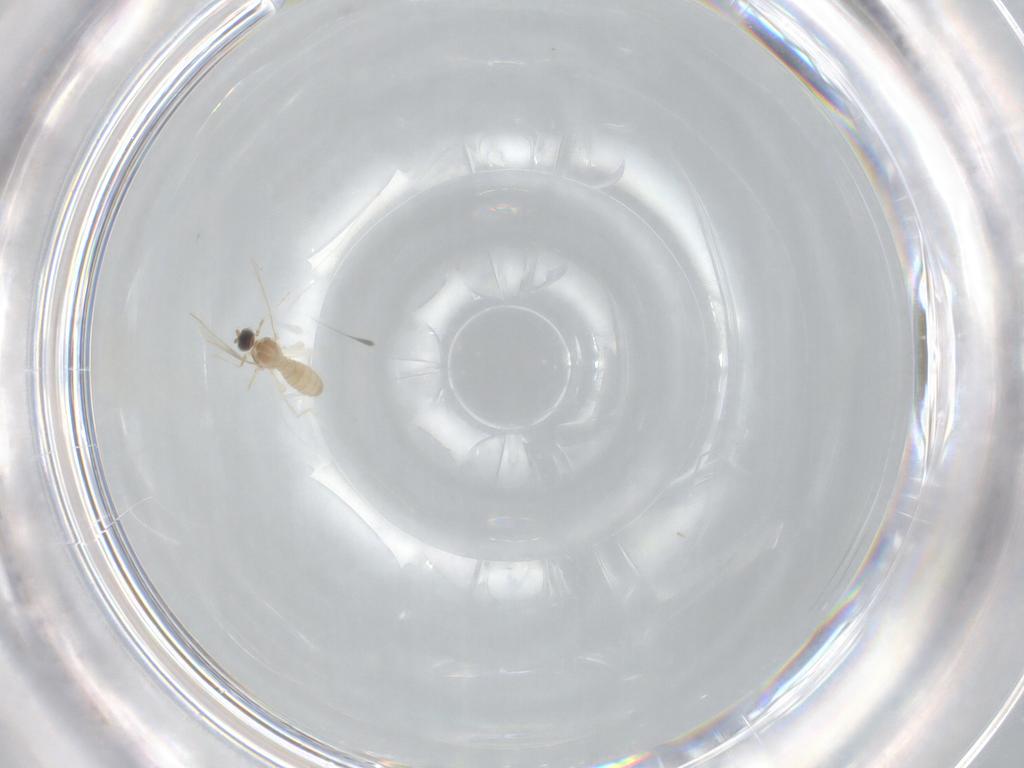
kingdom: Animalia
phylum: Arthropoda
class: Insecta
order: Diptera
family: Cecidomyiidae
